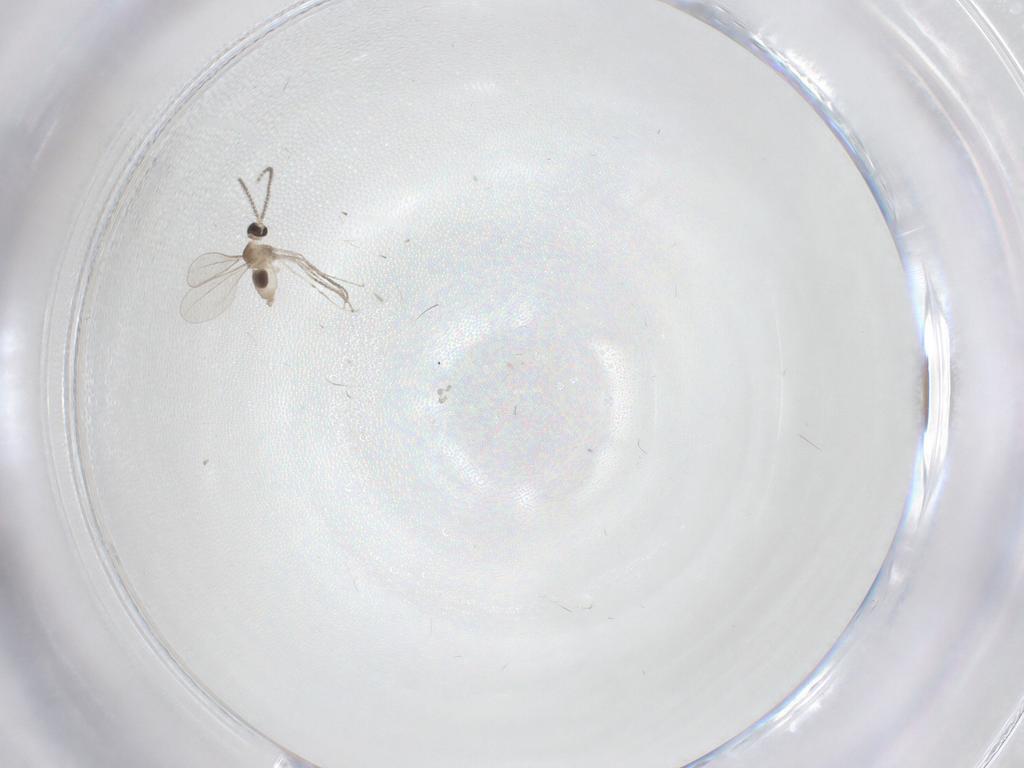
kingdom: Animalia
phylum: Arthropoda
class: Insecta
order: Diptera
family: Cecidomyiidae
